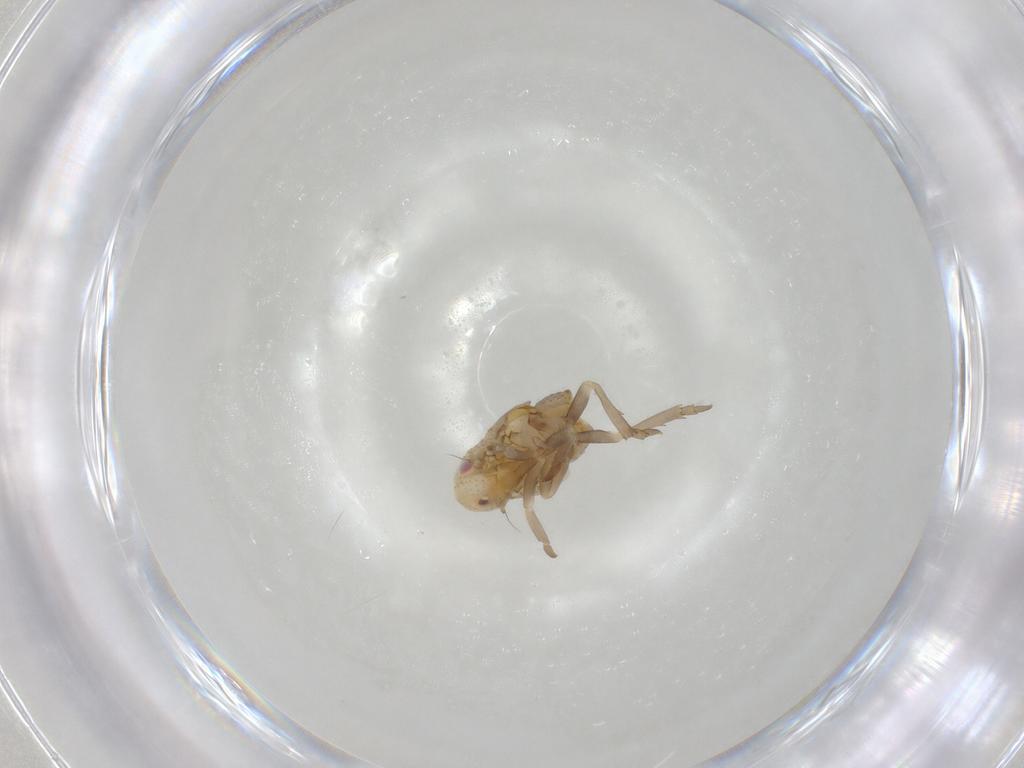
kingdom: Animalia
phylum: Arthropoda
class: Insecta
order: Hemiptera
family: Flatidae
